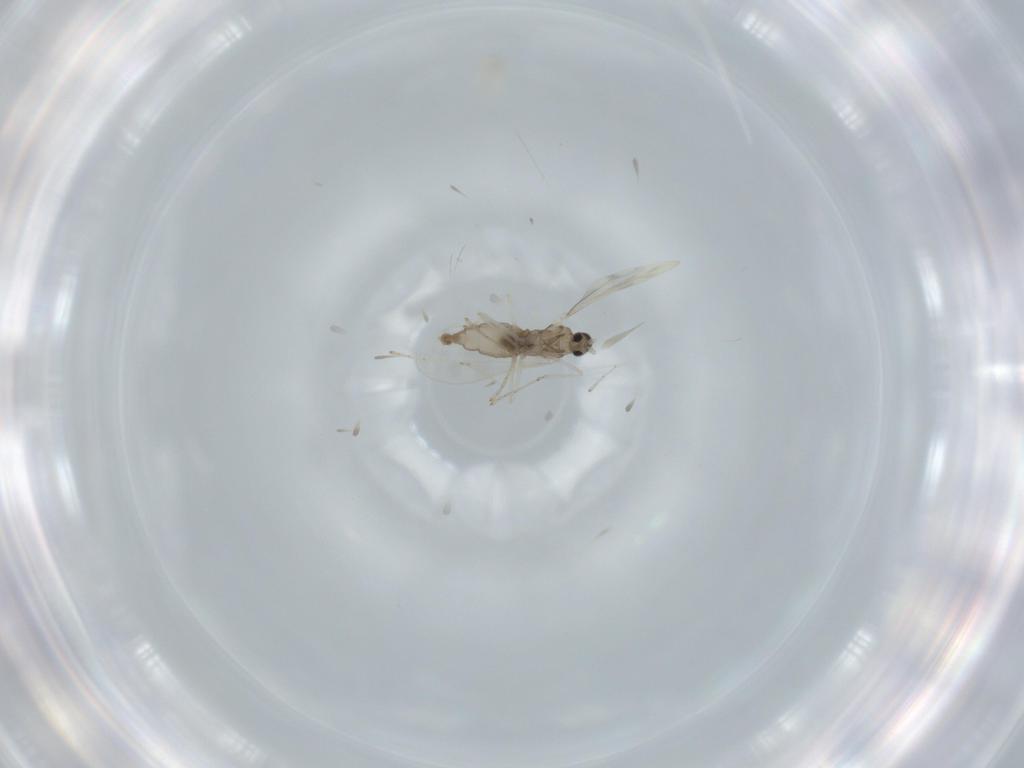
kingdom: Animalia
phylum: Arthropoda
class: Insecta
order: Diptera
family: Cecidomyiidae
